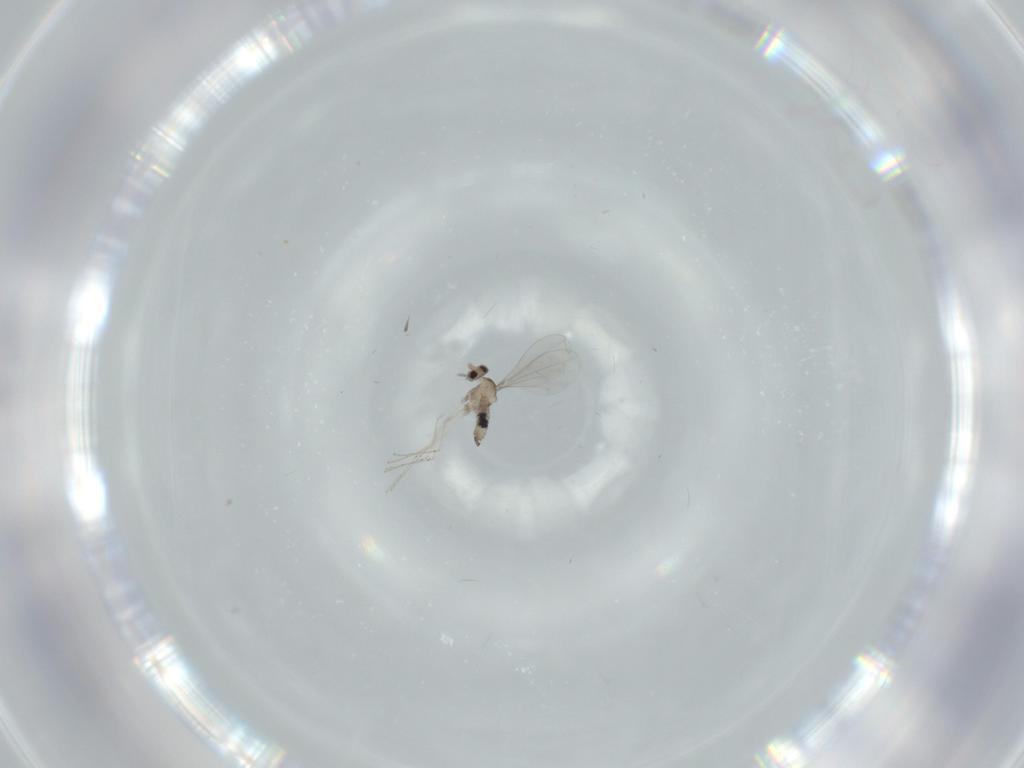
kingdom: Animalia
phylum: Arthropoda
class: Insecta
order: Diptera
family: Cecidomyiidae
